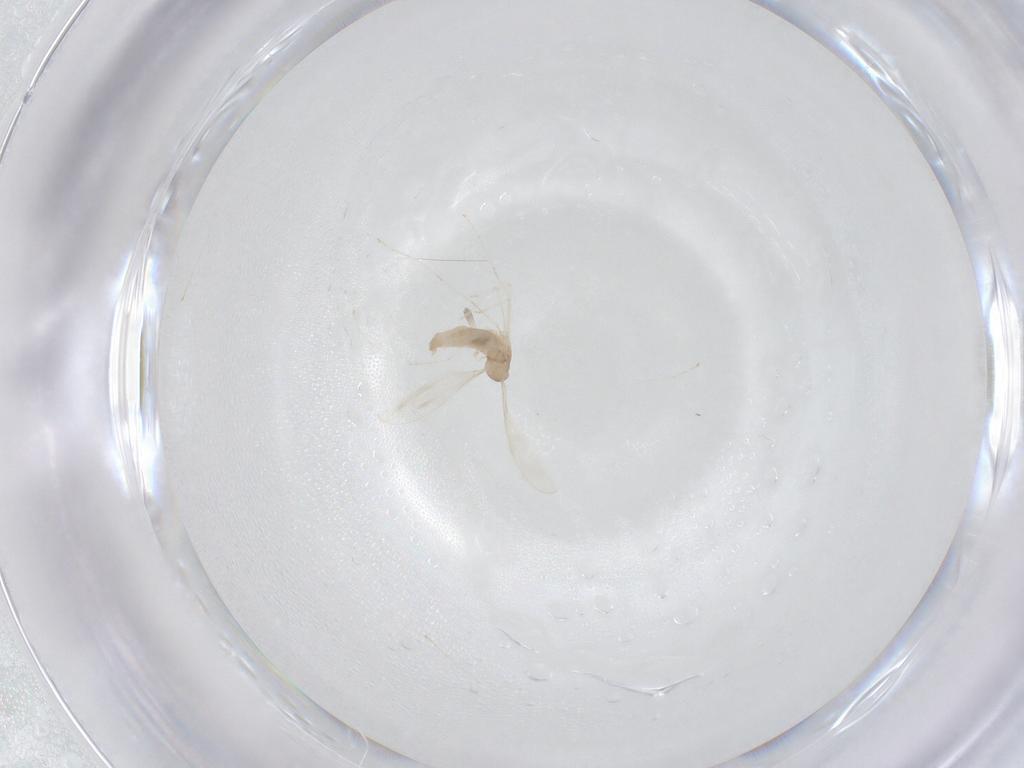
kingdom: Animalia
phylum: Arthropoda
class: Insecta
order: Diptera
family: Cecidomyiidae
